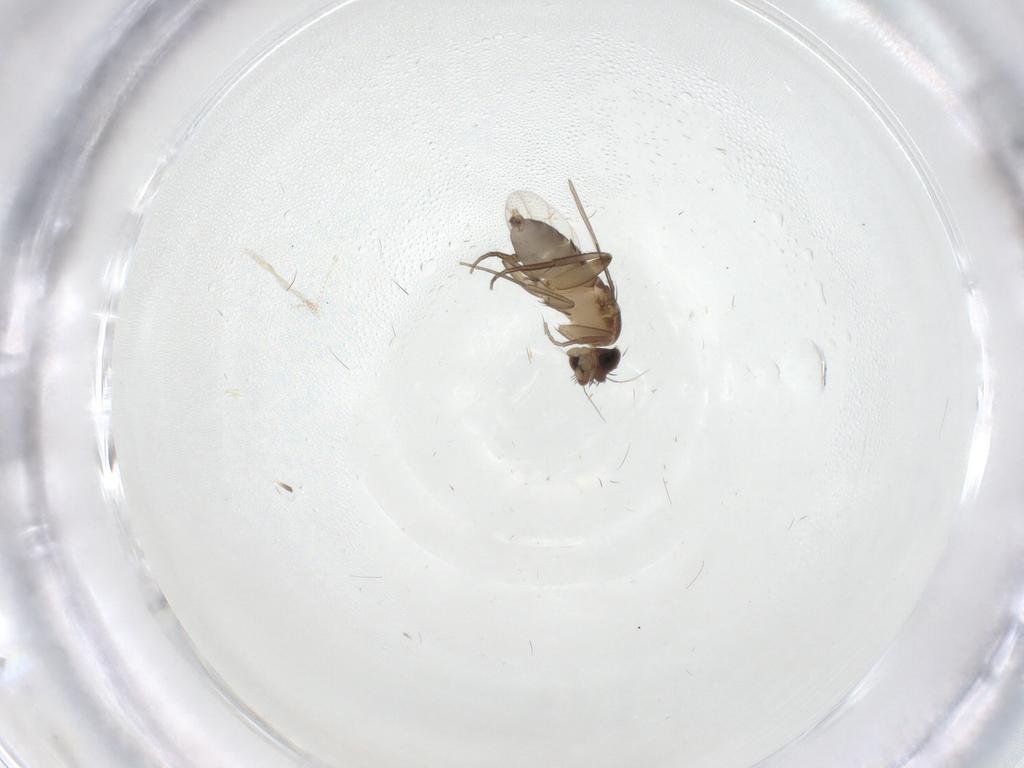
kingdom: Animalia
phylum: Arthropoda
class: Insecta
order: Diptera
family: Phoridae
